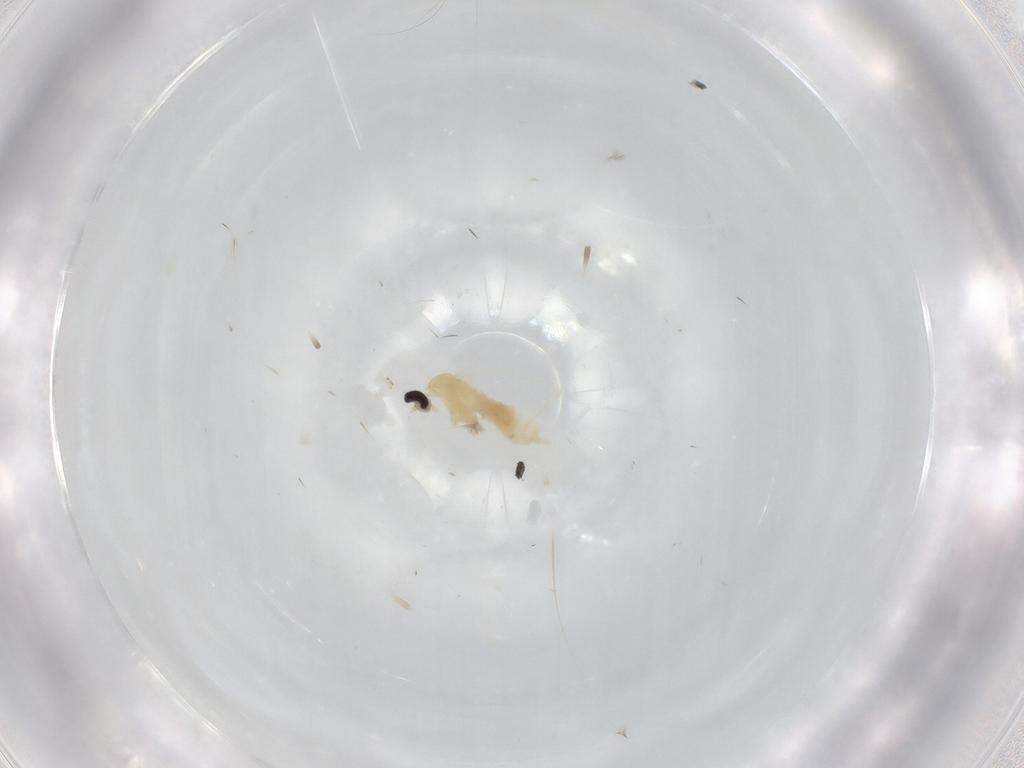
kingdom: Animalia
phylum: Arthropoda
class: Insecta
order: Diptera
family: Cecidomyiidae
